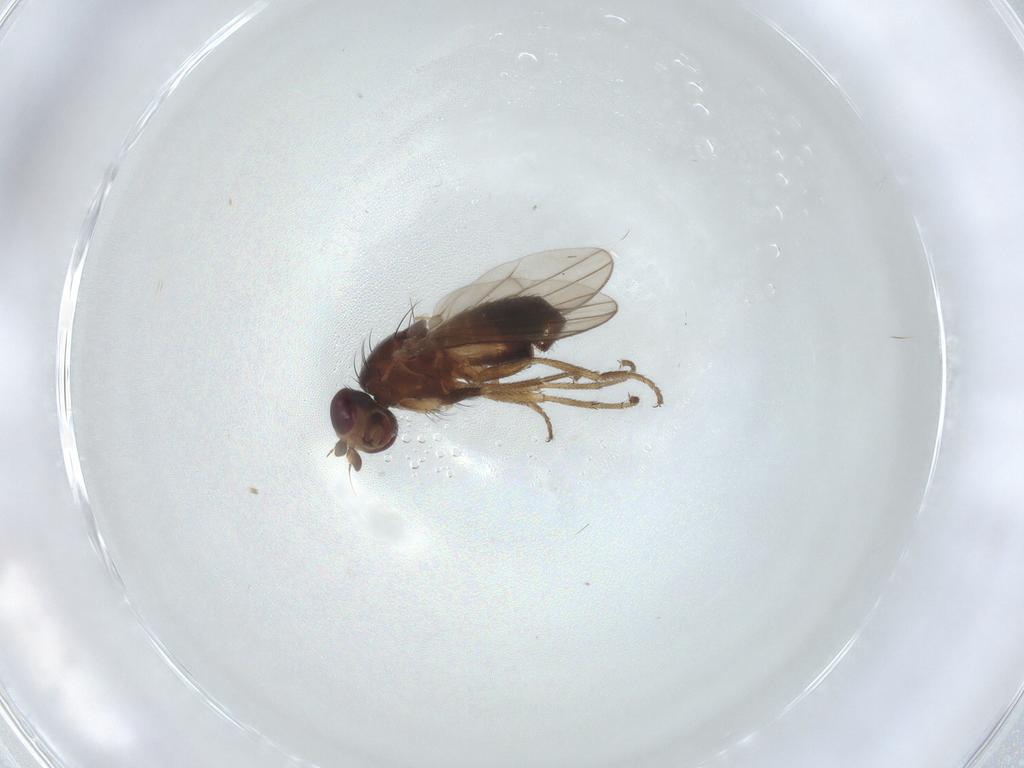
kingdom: Animalia
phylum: Arthropoda
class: Insecta
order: Diptera
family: Heleomyzidae
